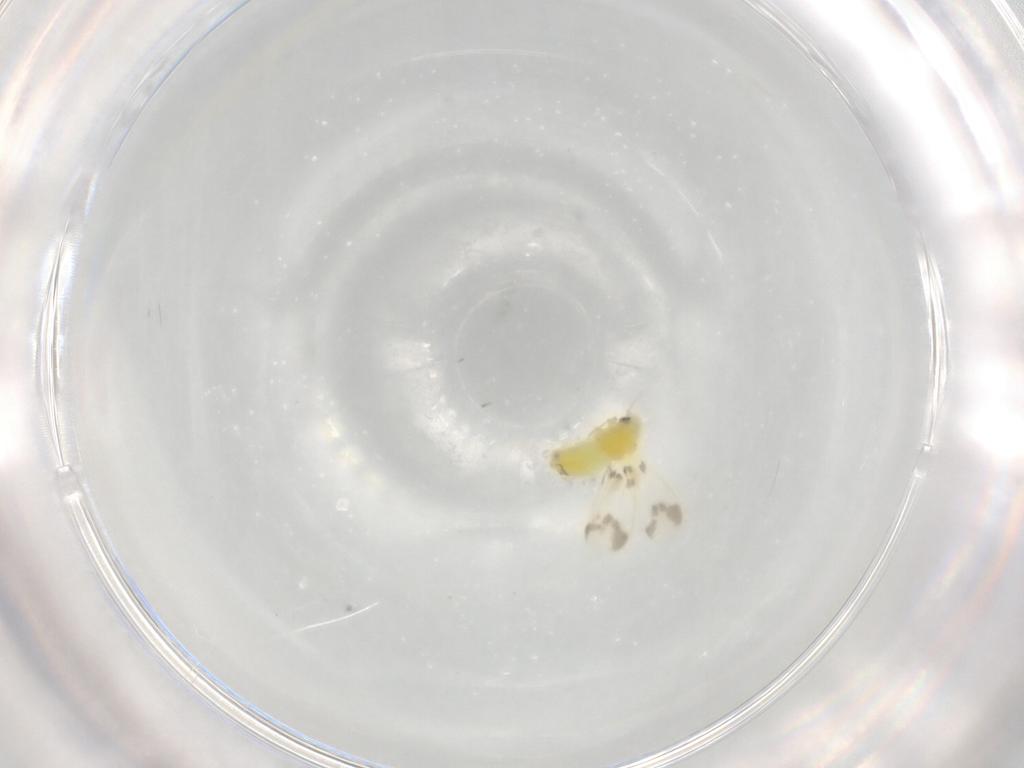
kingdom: Animalia
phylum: Arthropoda
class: Insecta
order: Hemiptera
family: Aleyrodidae
